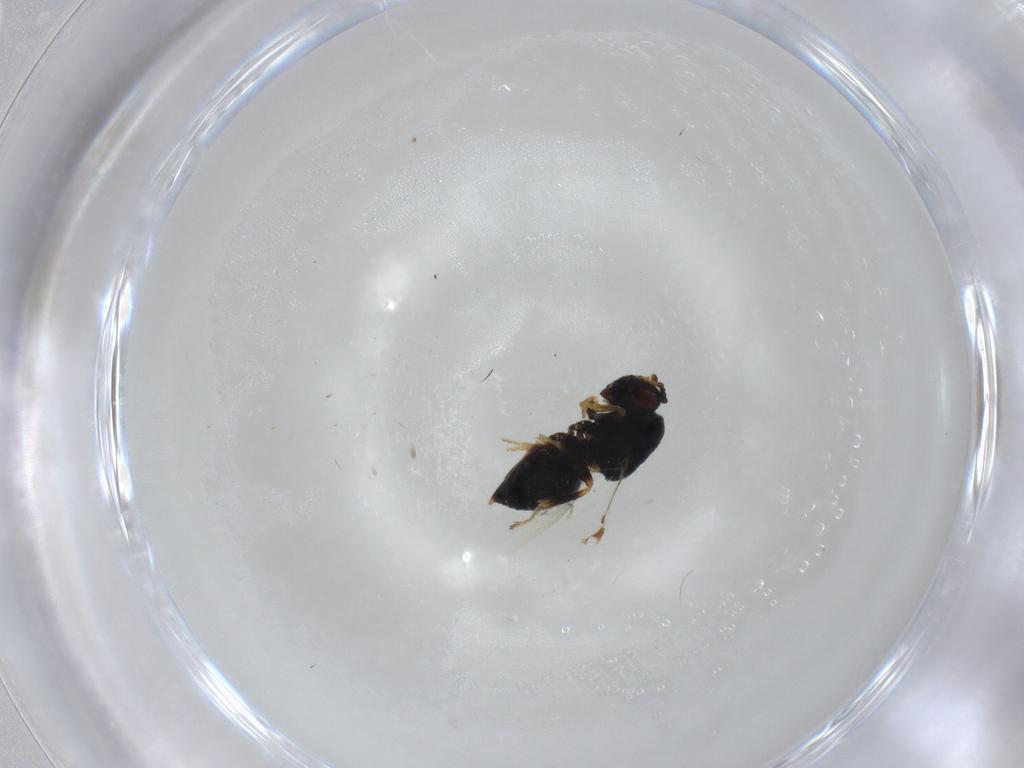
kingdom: Animalia
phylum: Arthropoda
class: Insecta
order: Hymenoptera
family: Eurytomidae
